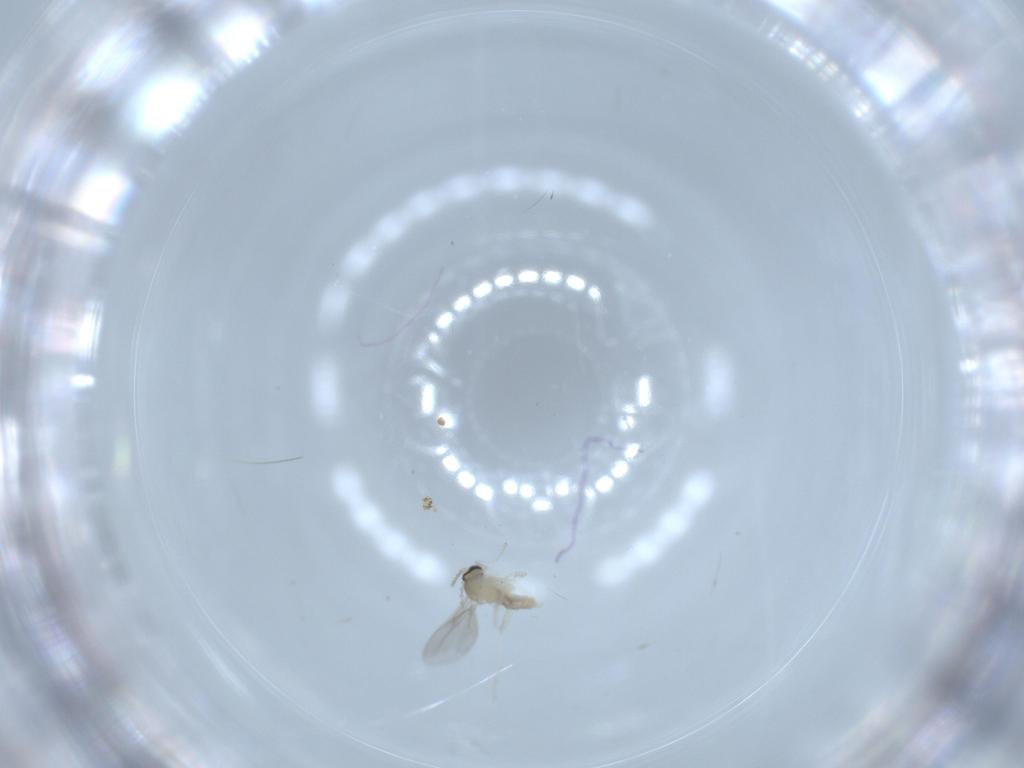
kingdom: Animalia
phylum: Arthropoda
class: Insecta
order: Diptera
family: Cecidomyiidae
